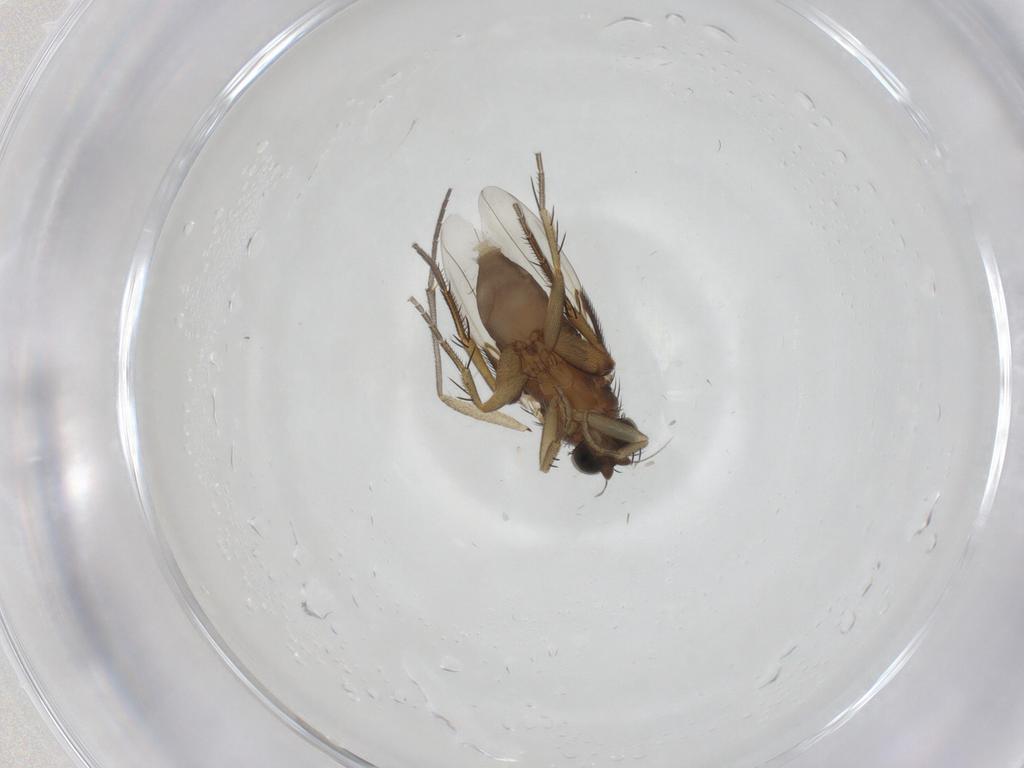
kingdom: Animalia
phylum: Arthropoda
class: Insecta
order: Diptera
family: Phoridae
